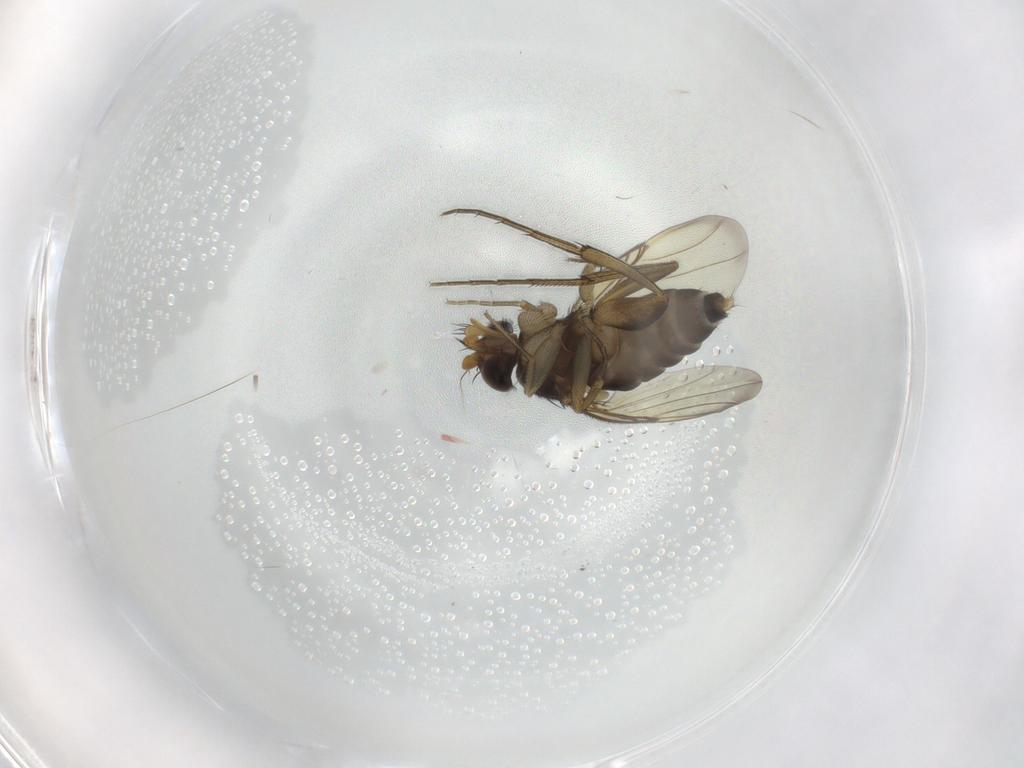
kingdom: Animalia
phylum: Arthropoda
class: Insecta
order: Diptera
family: Phoridae
